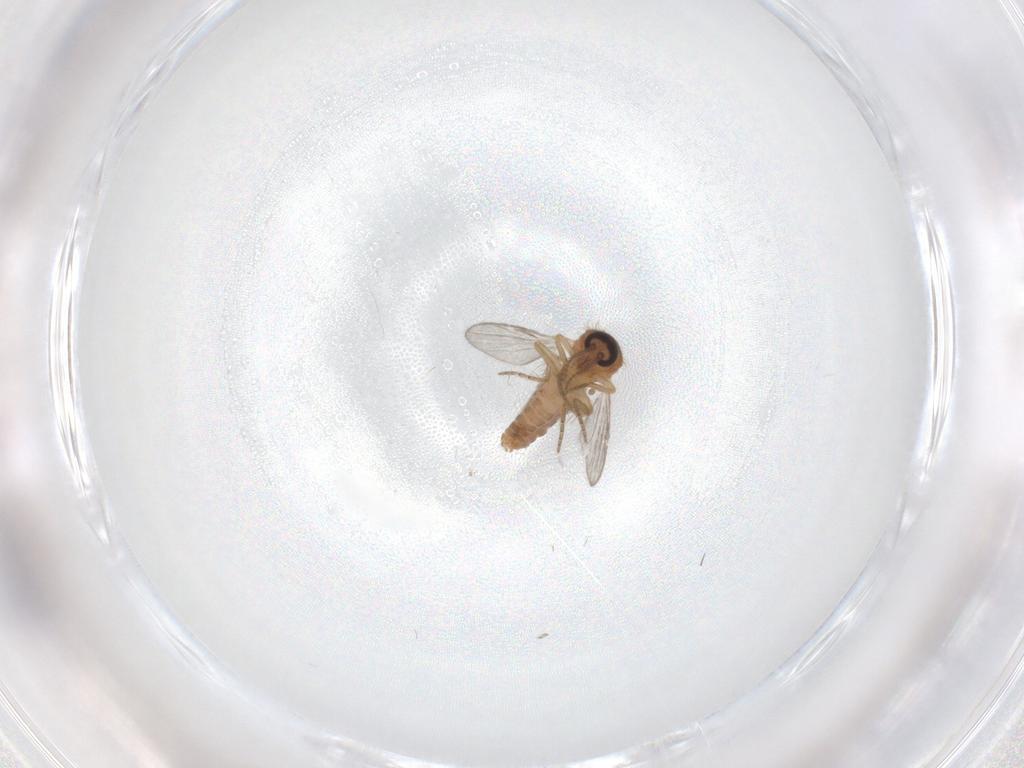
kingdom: Animalia
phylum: Arthropoda
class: Insecta
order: Diptera
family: Ceratopogonidae
